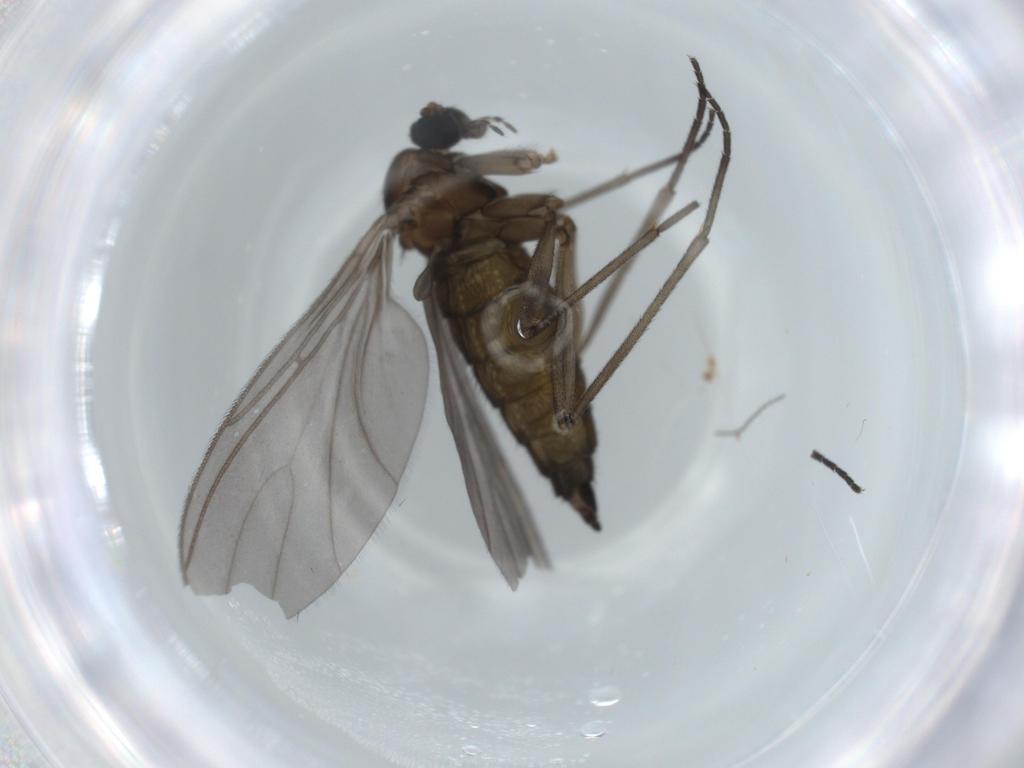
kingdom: Animalia
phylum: Arthropoda
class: Insecta
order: Diptera
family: Sciaridae
